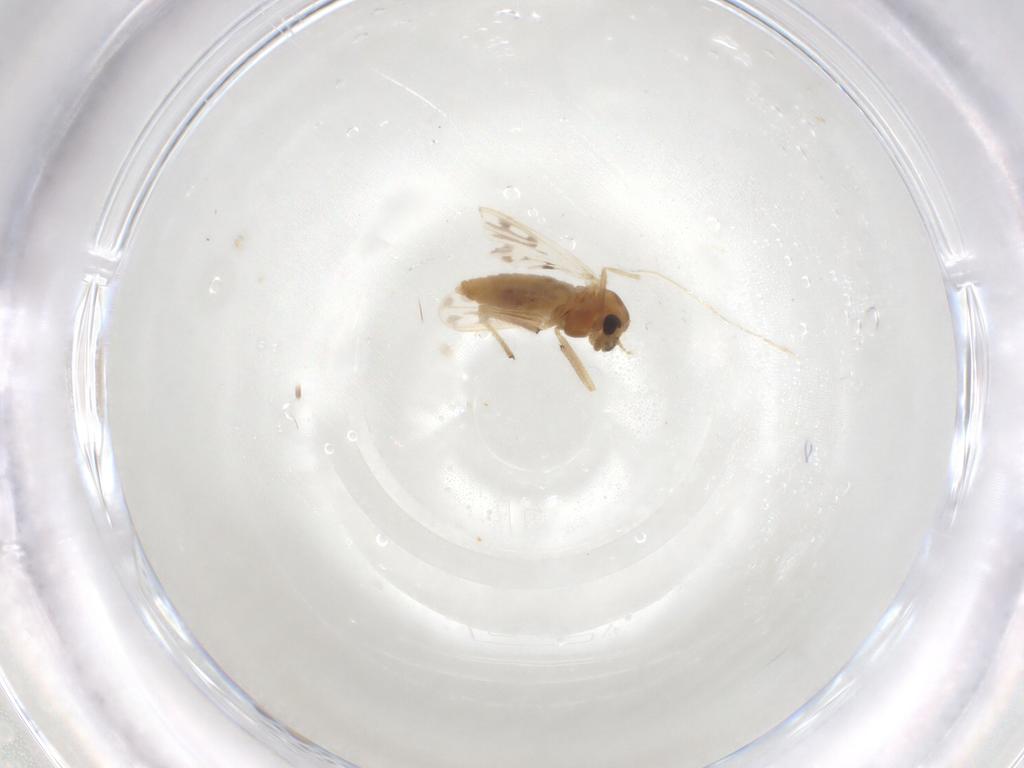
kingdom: Animalia
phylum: Arthropoda
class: Insecta
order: Diptera
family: Chironomidae
